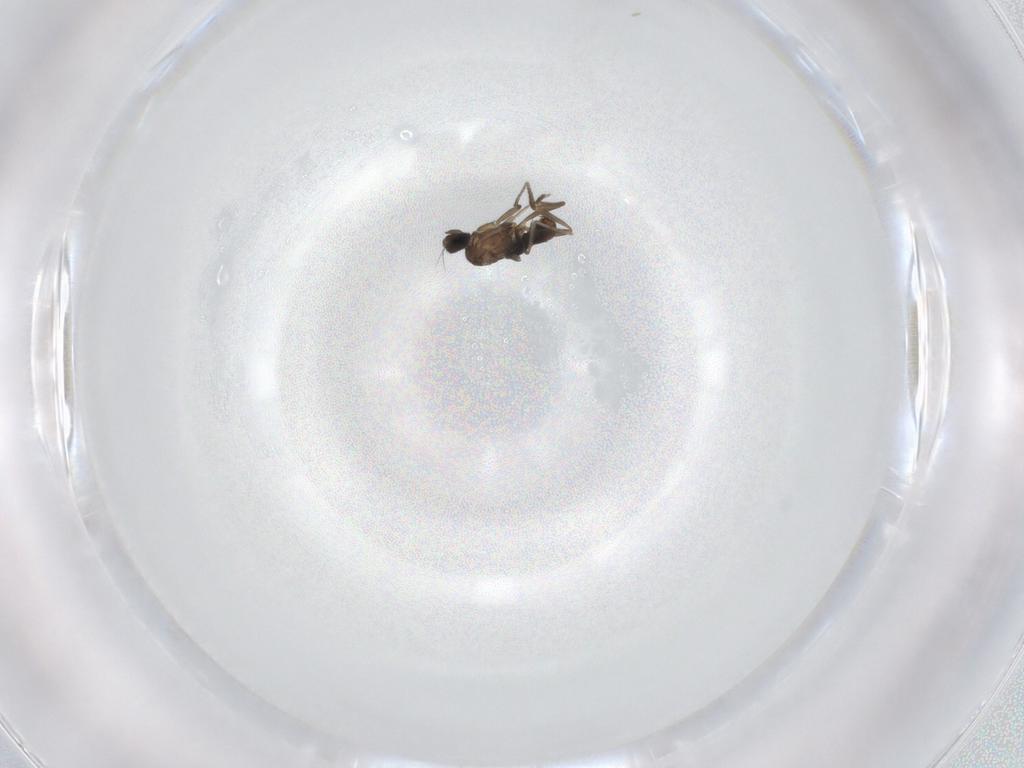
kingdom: Animalia
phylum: Arthropoda
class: Insecta
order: Diptera
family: Phoridae
